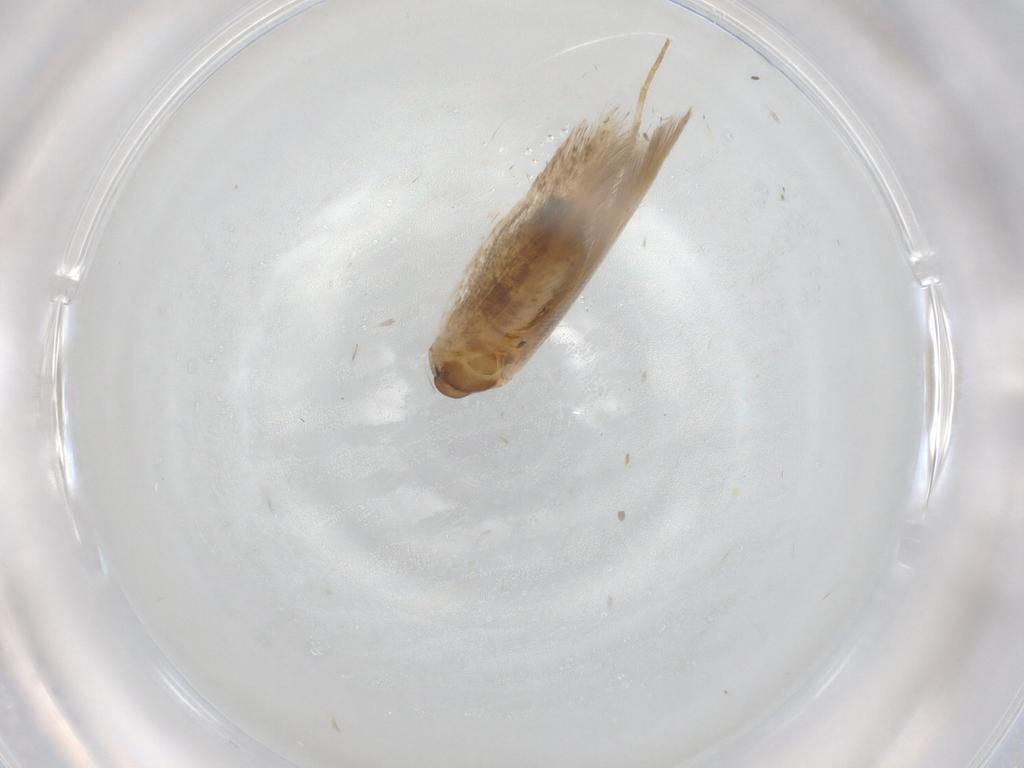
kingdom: Animalia
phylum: Arthropoda
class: Insecta
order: Lepidoptera
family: Cosmopterigidae
